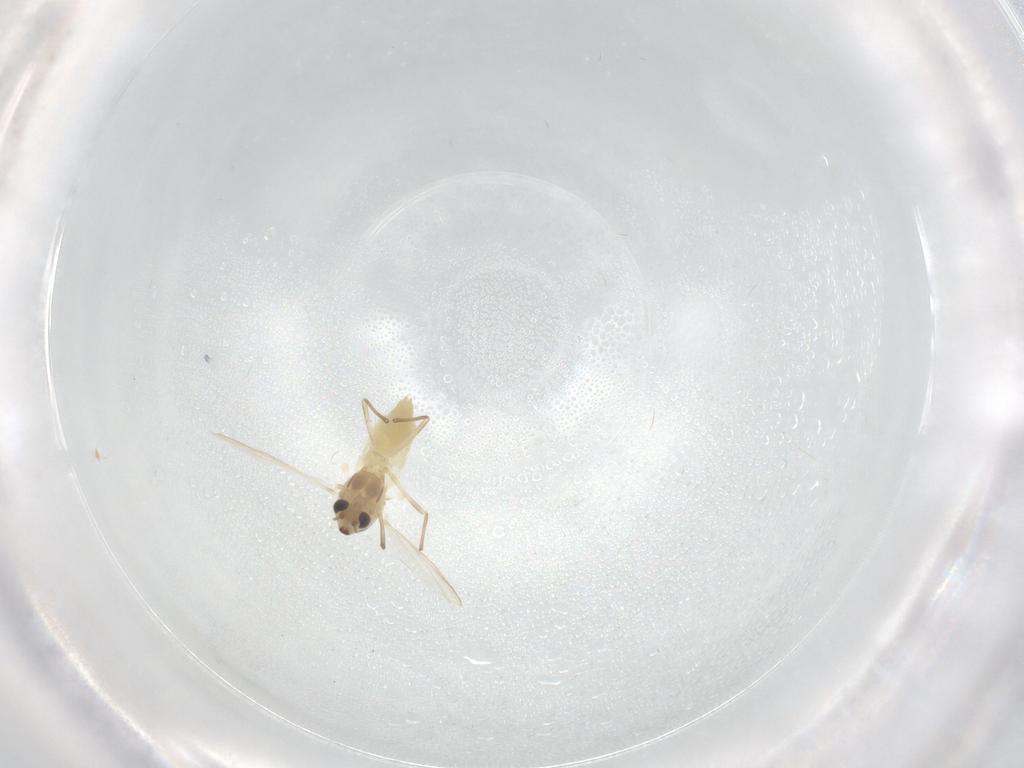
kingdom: Animalia
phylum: Arthropoda
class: Insecta
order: Diptera
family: Chironomidae
